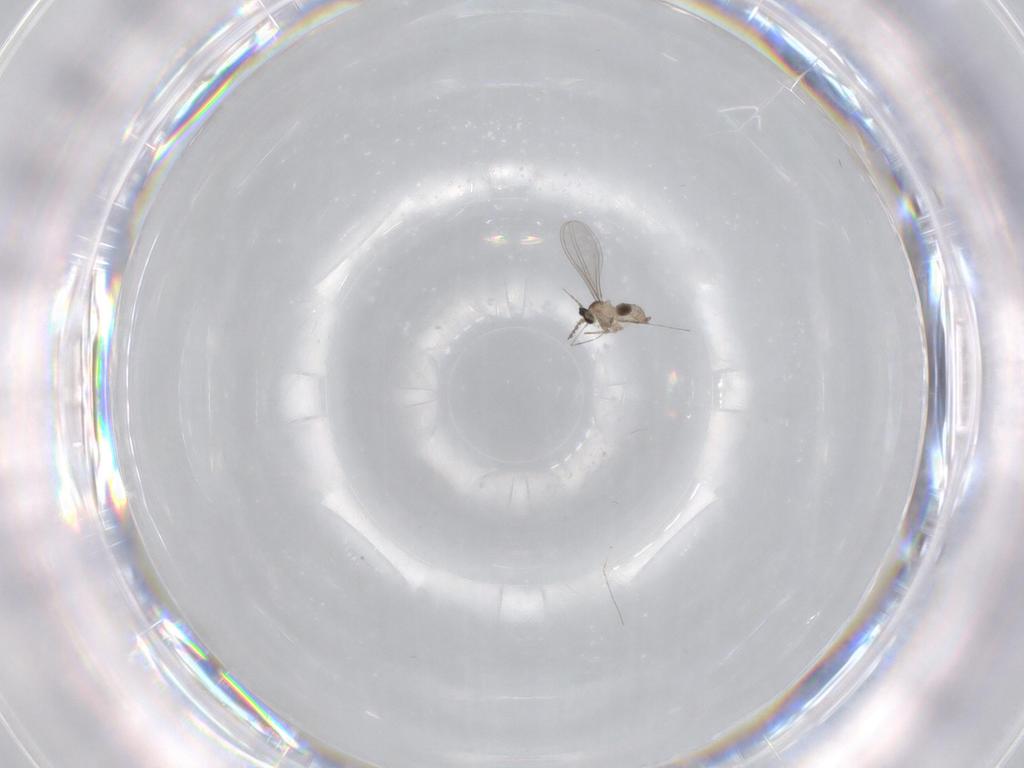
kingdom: Animalia
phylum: Arthropoda
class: Insecta
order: Diptera
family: Cecidomyiidae
